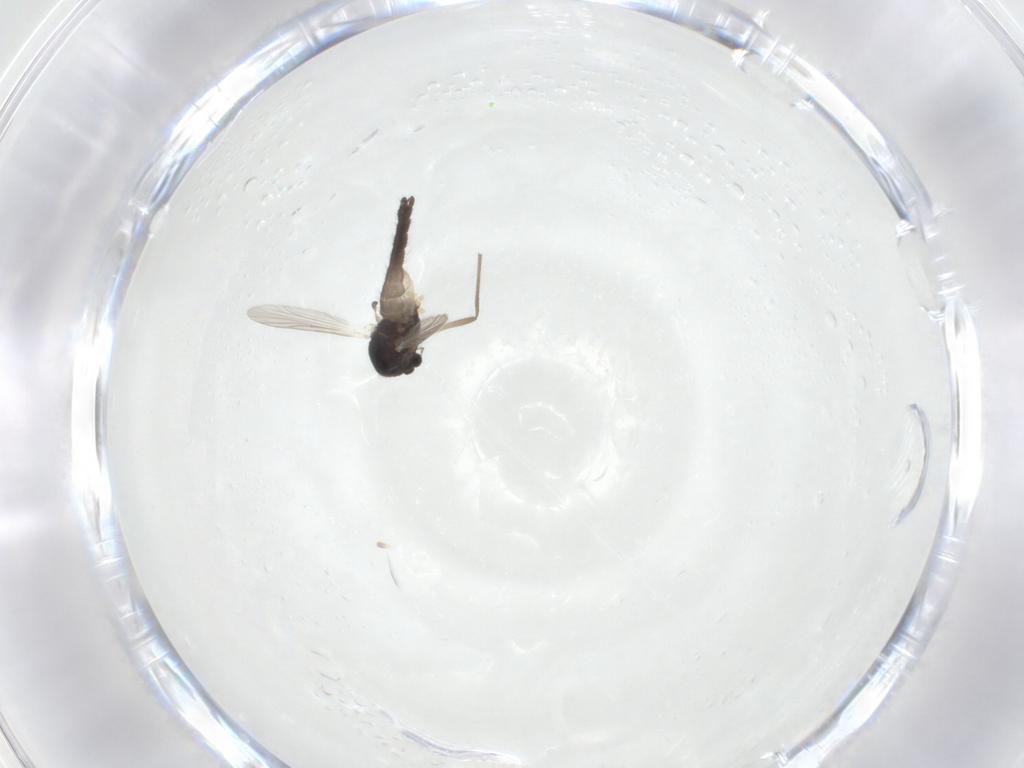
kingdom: Animalia
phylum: Arthropoda
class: Insecta
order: Diptera
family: Chironomidae
